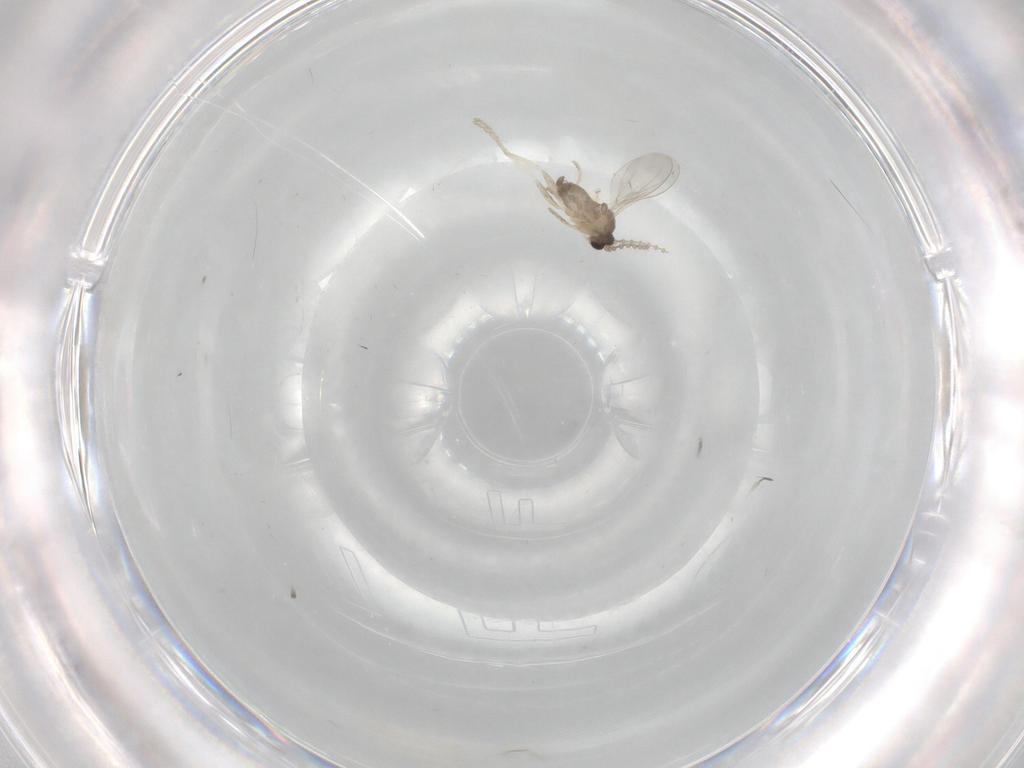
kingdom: Animalia
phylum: Arthropoda
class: Insecta
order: Diptera
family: Cecidomyiidae
